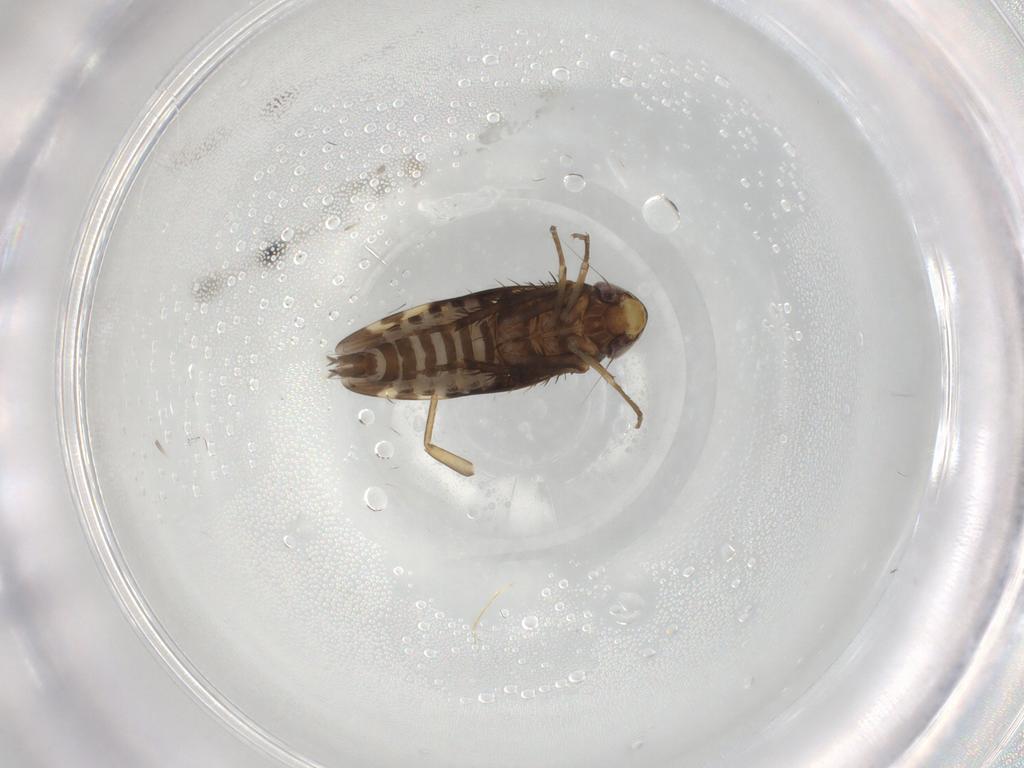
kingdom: Animalia
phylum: Arthropoda
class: Insecta
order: Hemiptera
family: Cicadellidae
